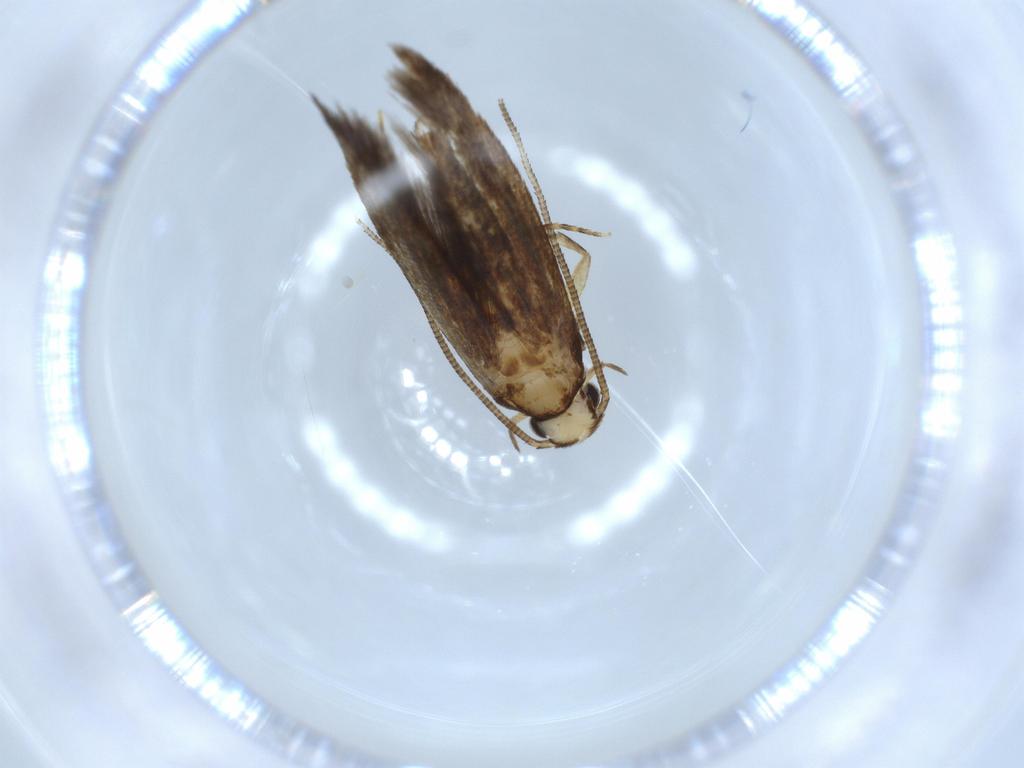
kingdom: Animalia
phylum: Arthropoda
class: Insecta
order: Lepidoptera
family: Tineidae
